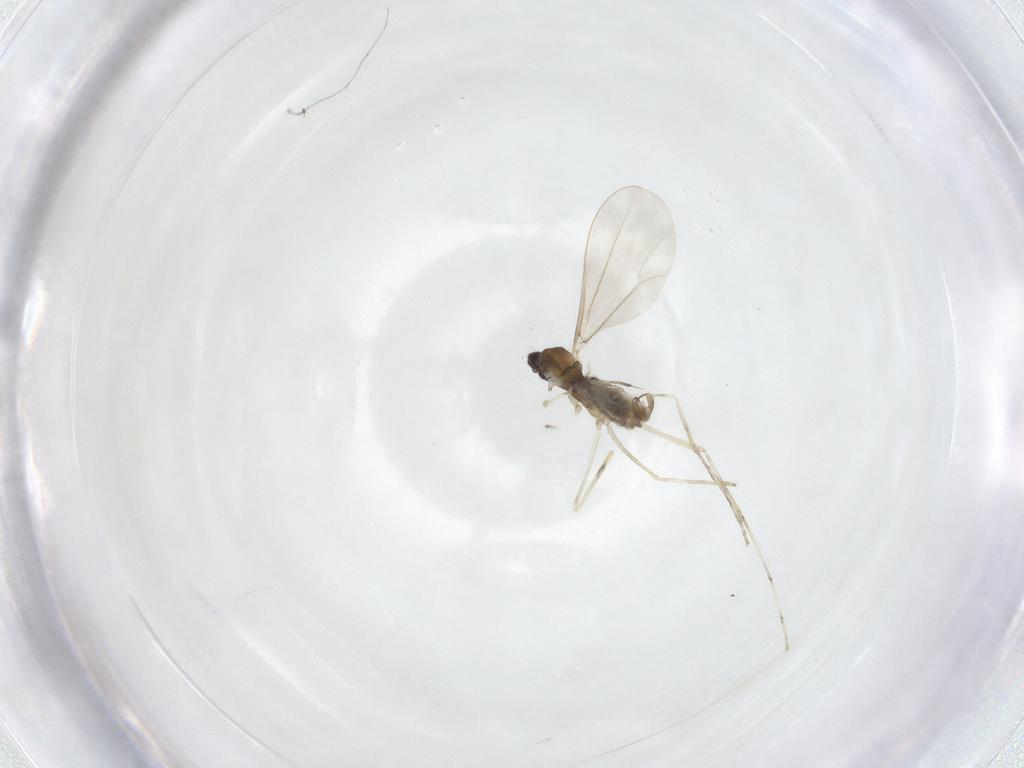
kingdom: Animalia
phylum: Arthropoda
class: Insecta
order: Diptera
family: Cecidomyiidae
